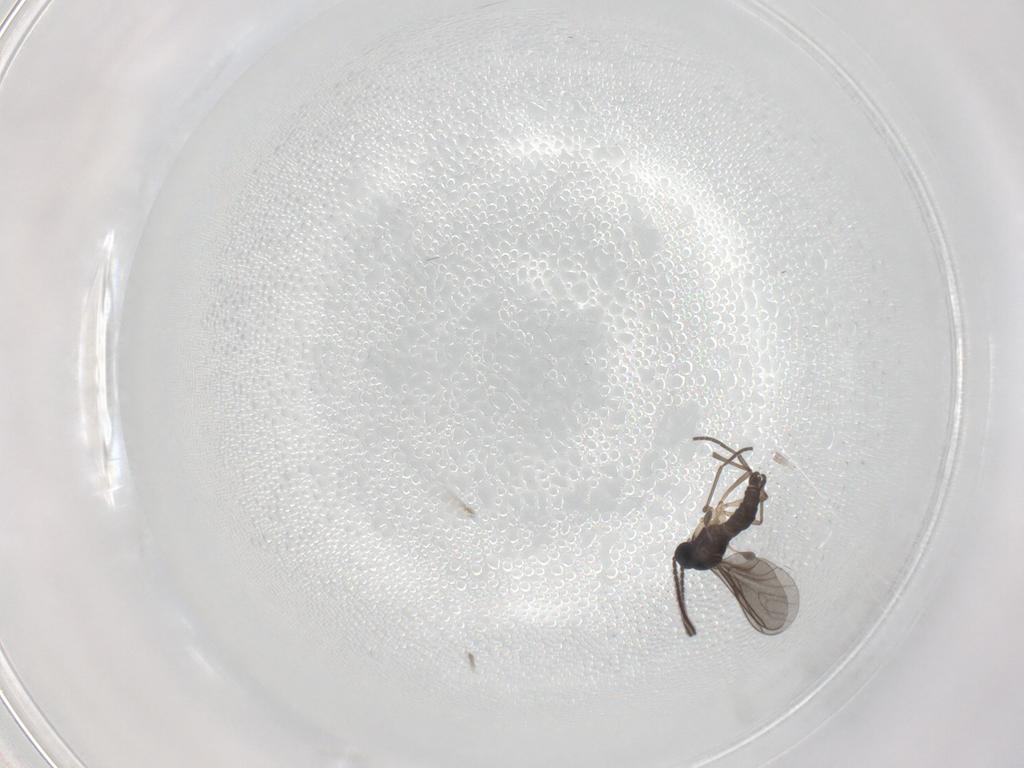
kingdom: Animalia
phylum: Arthropoda
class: Insecta
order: Diptera
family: Sciaridae
